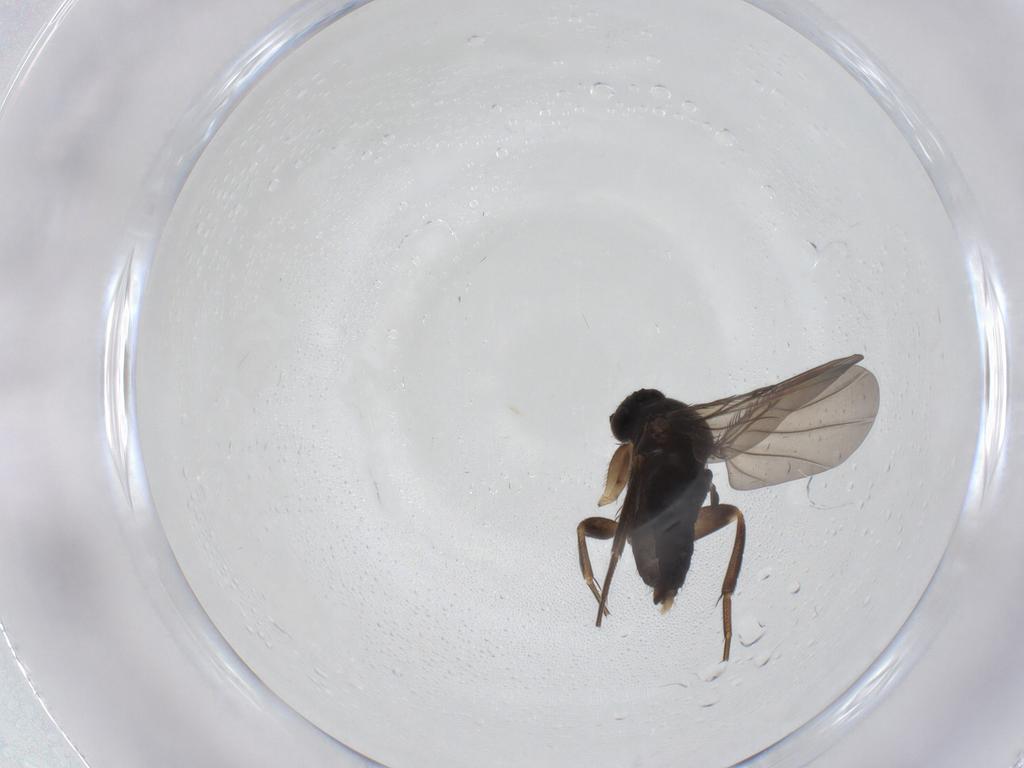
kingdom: Animalia
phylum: Arthropoda
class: Insecta
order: Diptera
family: Phoridae
